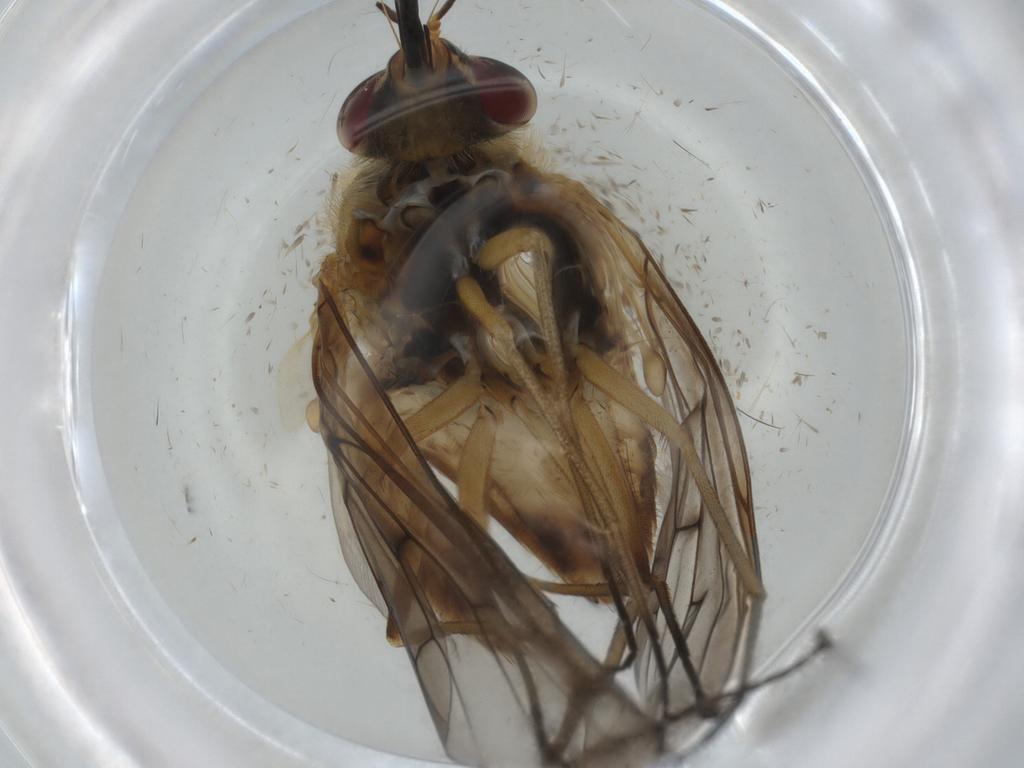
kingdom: Animalia
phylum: Arthropoda
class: Insecta
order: Diptera
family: Bombyliidae
